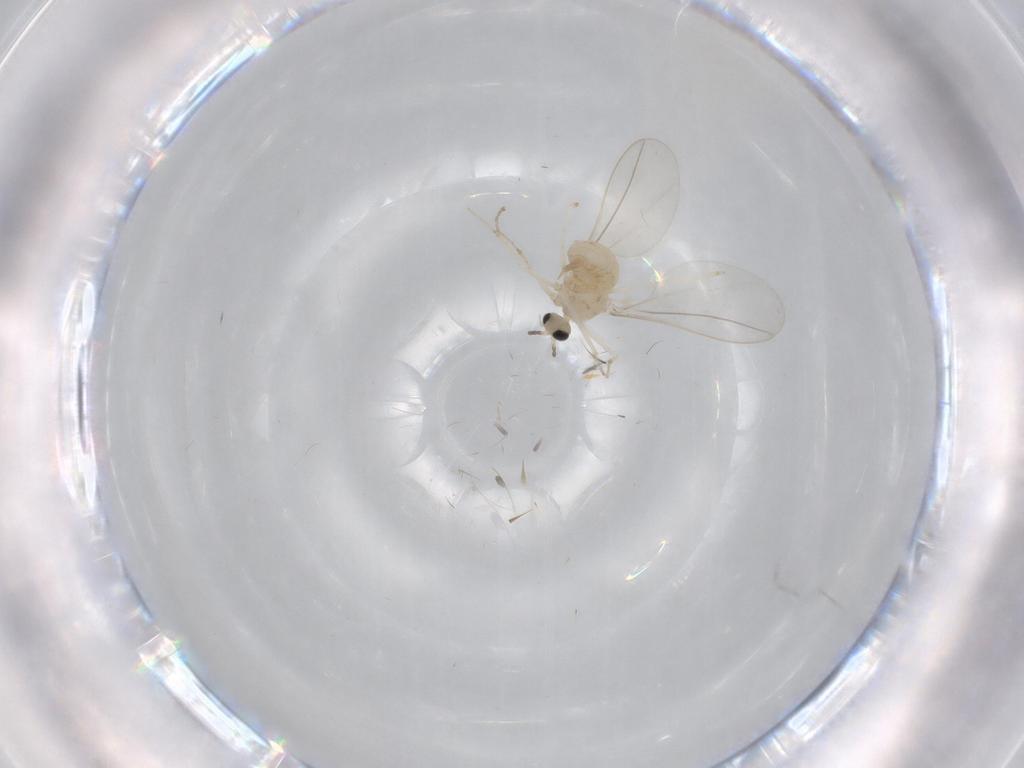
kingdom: Animalia
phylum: Arthropoda
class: Insecta
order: Diptera
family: Cecidomyiidae
